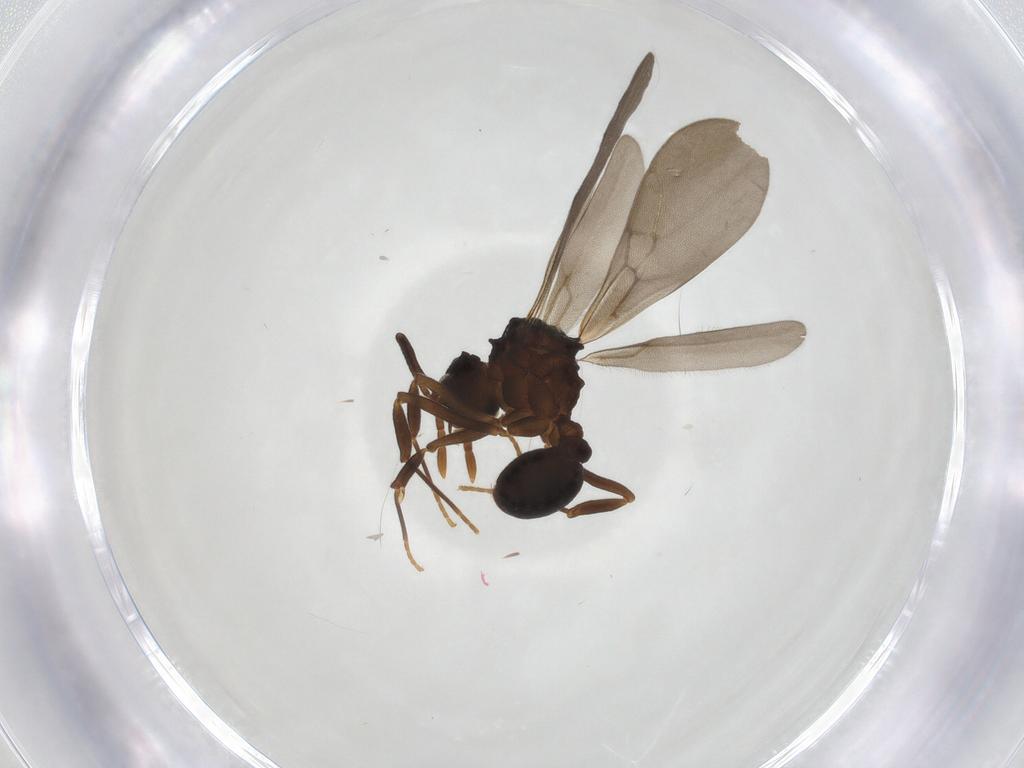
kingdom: Animalia
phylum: Arthropoda
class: Insecta
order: Hymenoptera
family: Formicidae
